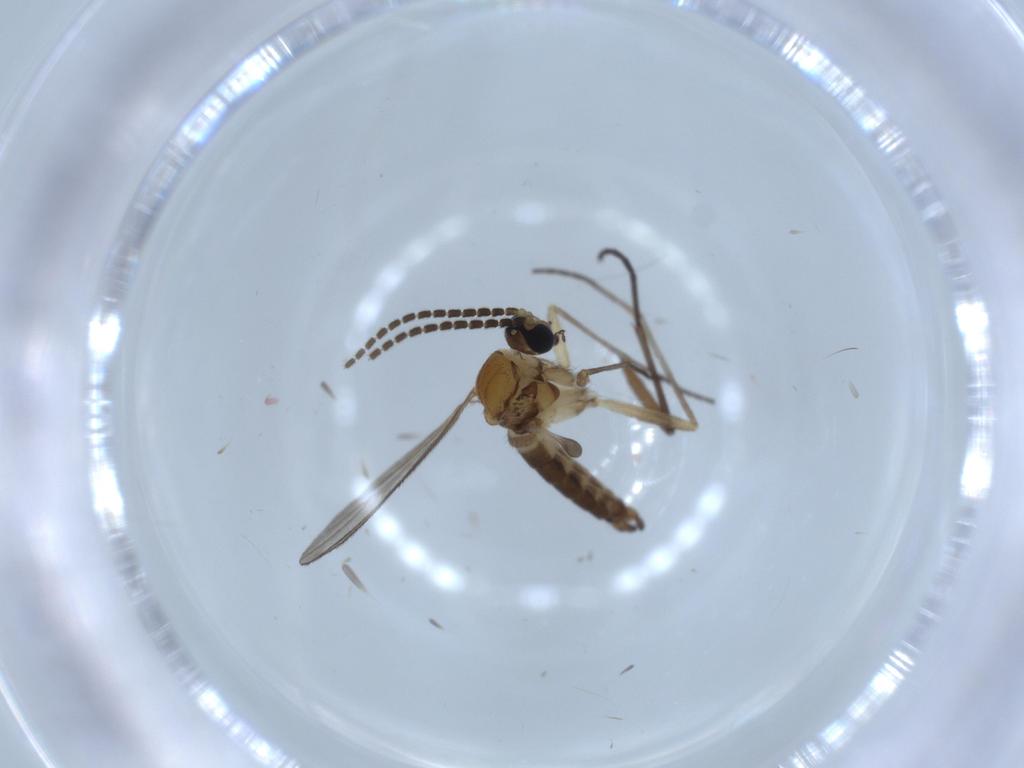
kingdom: Animalia
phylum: Arthropoda
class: Insecta
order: Diptera
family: Sciaridae
